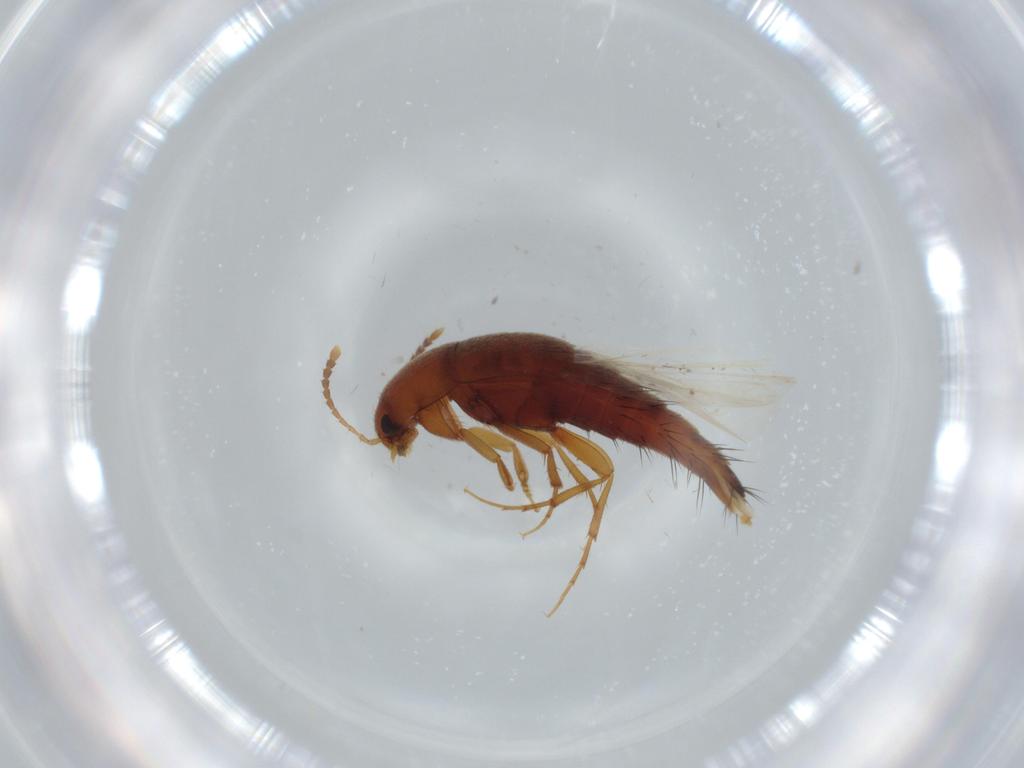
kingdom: Animalia
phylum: Arthropoda
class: Insecta
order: Coleoptera
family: Staphylinidae
